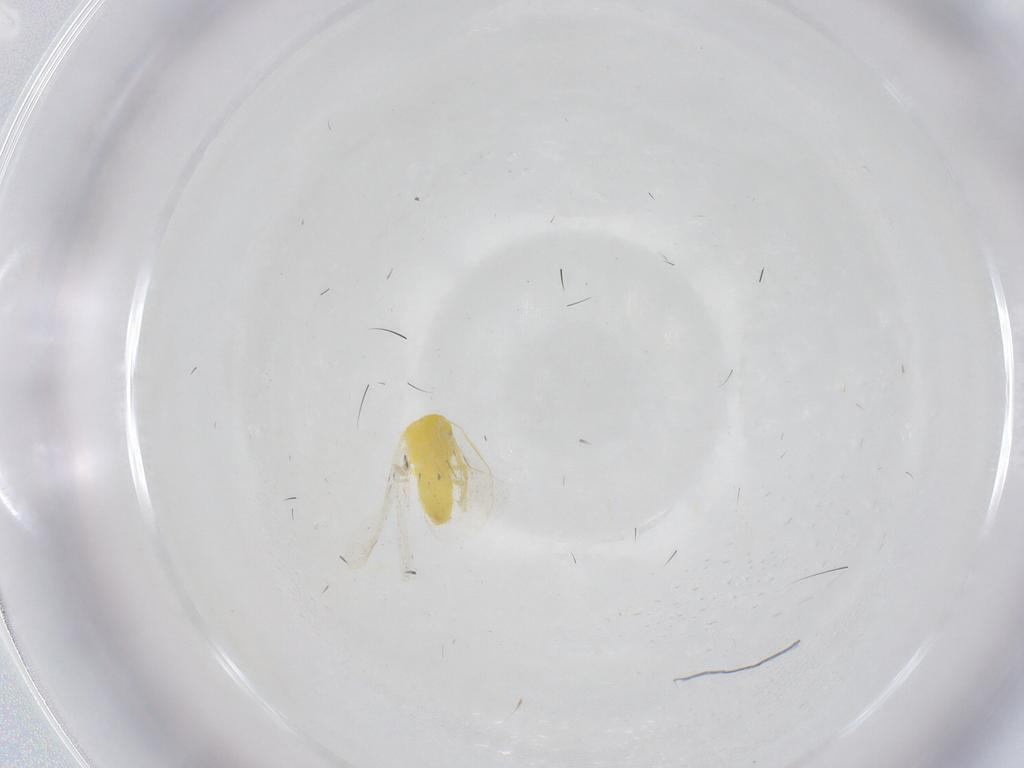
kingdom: Animalia
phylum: Arthropoda
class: Insecta
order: Hemiptera
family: Aleyrodidae
